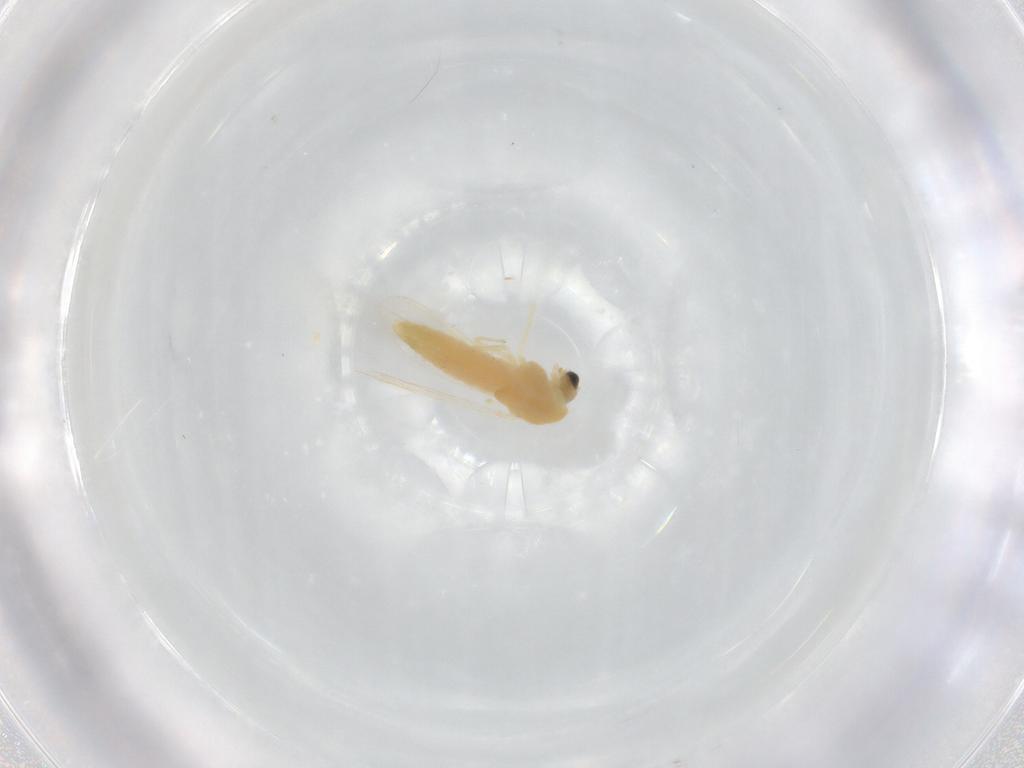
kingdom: Animalia
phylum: Arthropoda
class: Insecta
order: Diptera
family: Chironomidae
